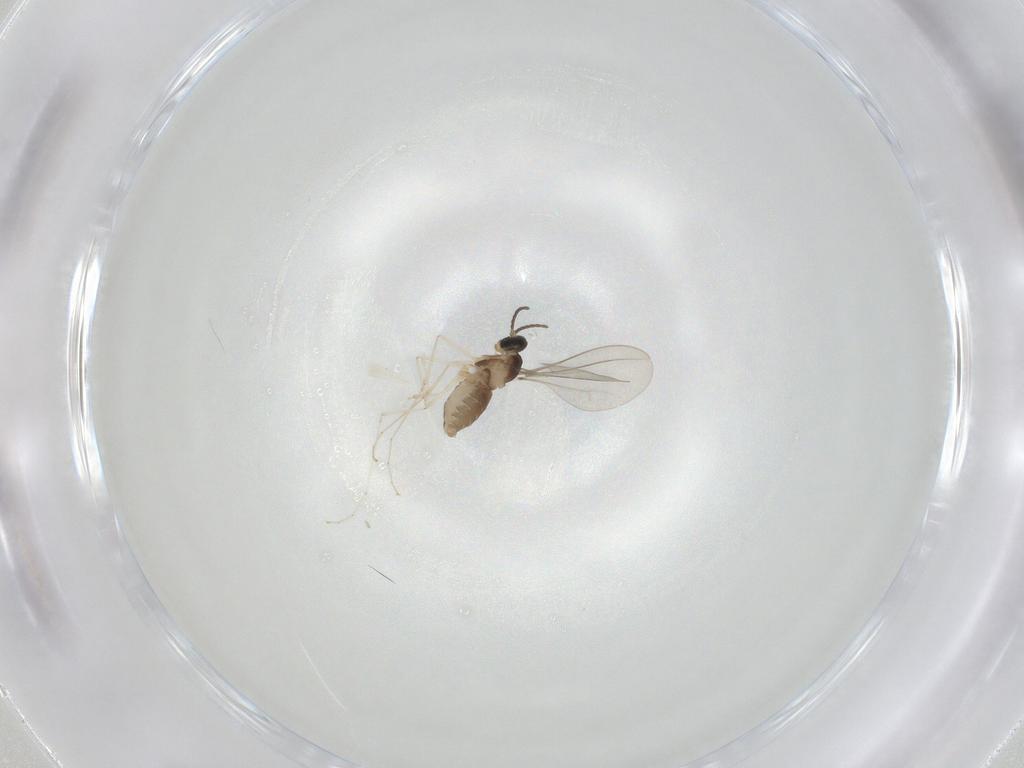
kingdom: Animalia
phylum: Arthropoda
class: Insecta
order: Diptera
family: Cecidomyiidae
